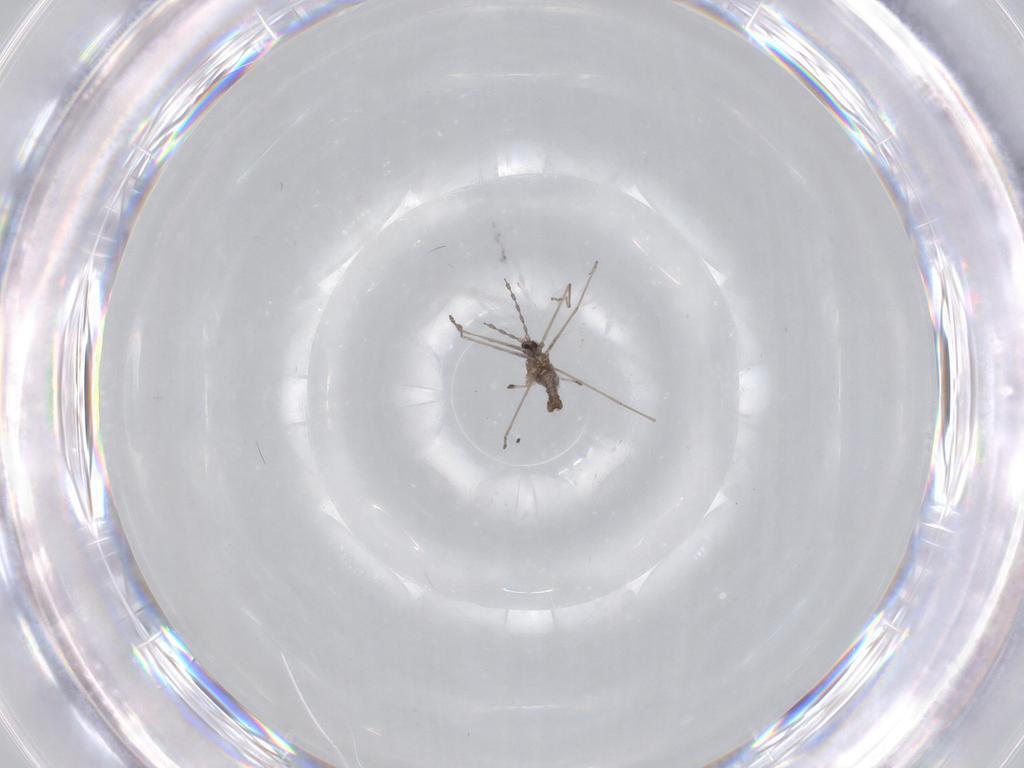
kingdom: Animalia
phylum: Arthropoda
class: Insecta
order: Diptera
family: Cecidomyiidae
